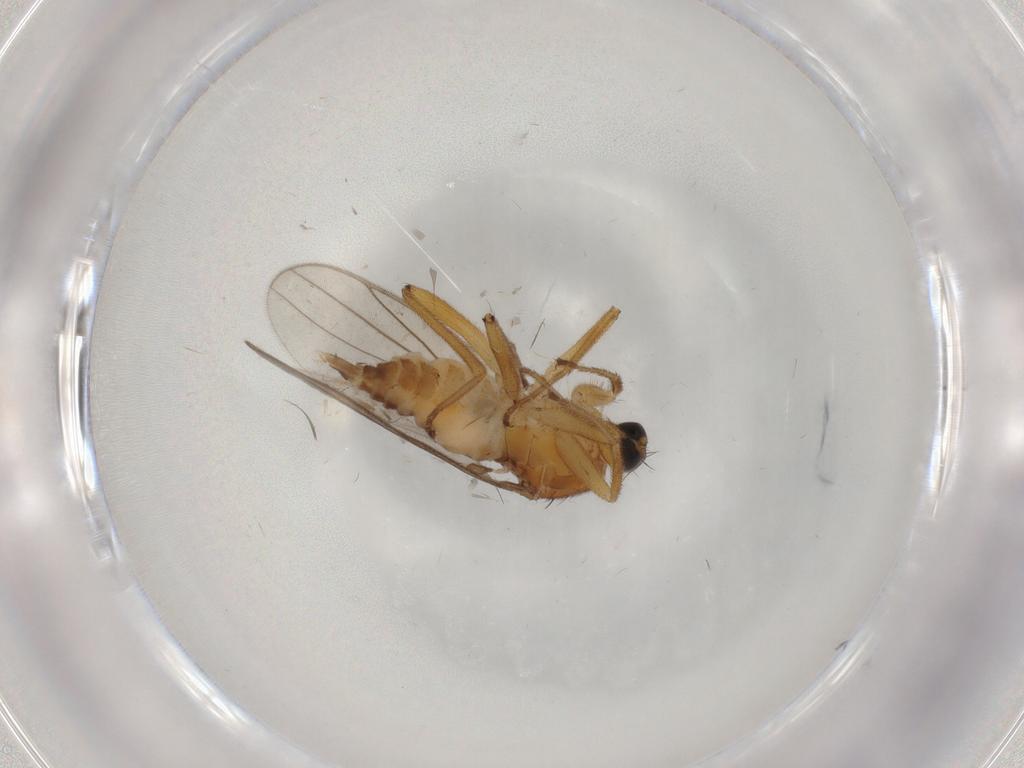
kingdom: Animalia
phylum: Arthropoda
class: Insecta
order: Diptera
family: Hybotidae
